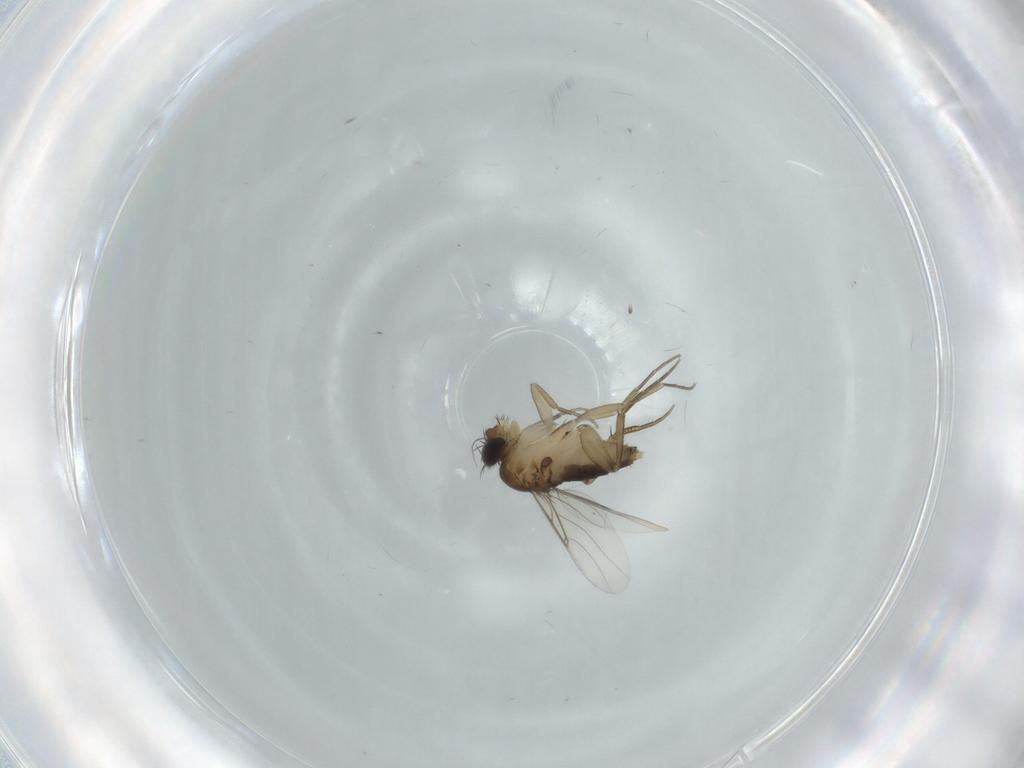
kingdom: Animalia
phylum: Arthropoda
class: Insecta
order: Diptera
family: Phoridae
